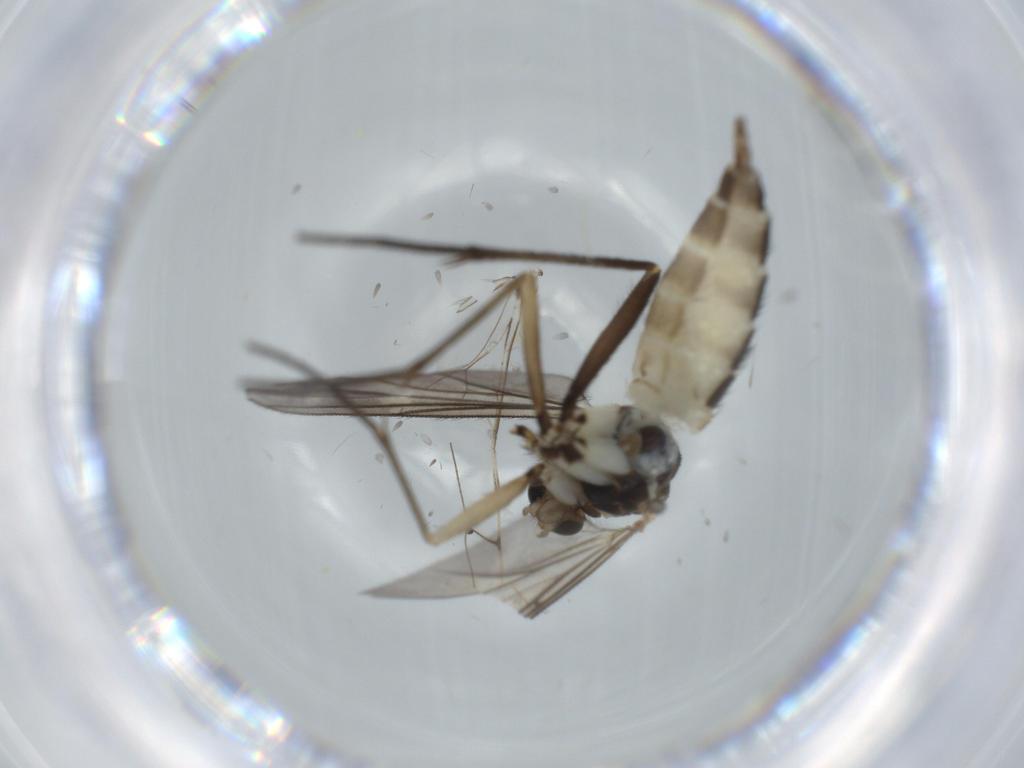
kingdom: Animalia
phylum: Arthropoda
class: Insecta
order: Diptera
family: Sciaridae
